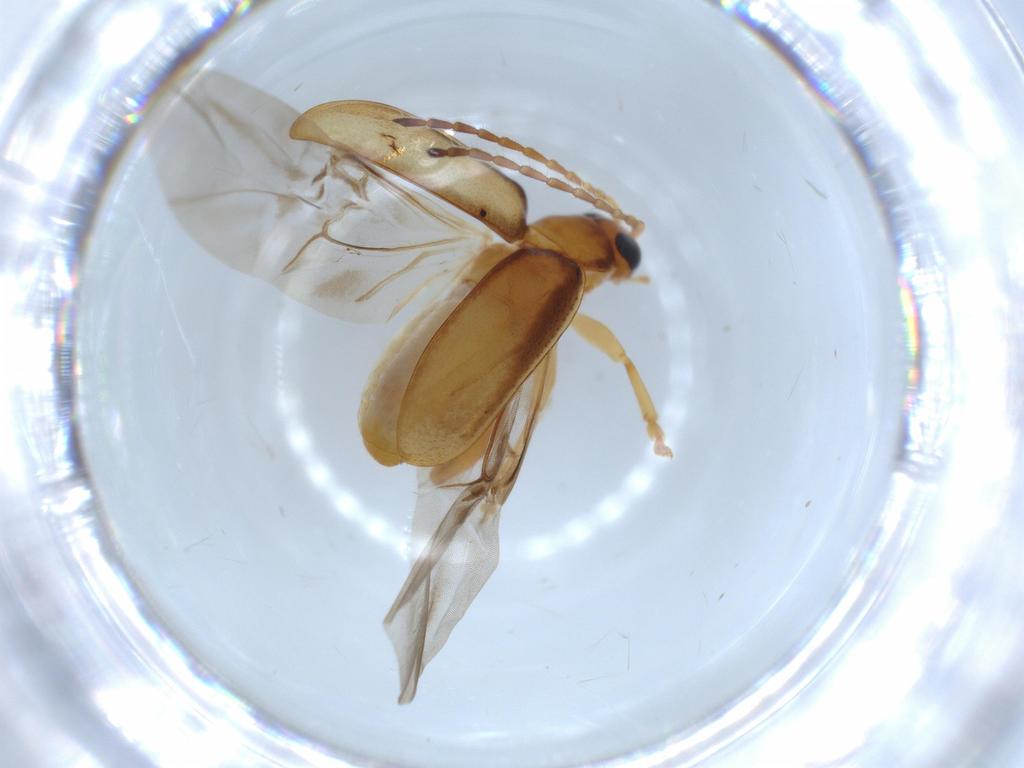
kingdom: Animalia
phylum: Arthropoda
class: Insecta
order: Coleoptera
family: Chrysomelidae
